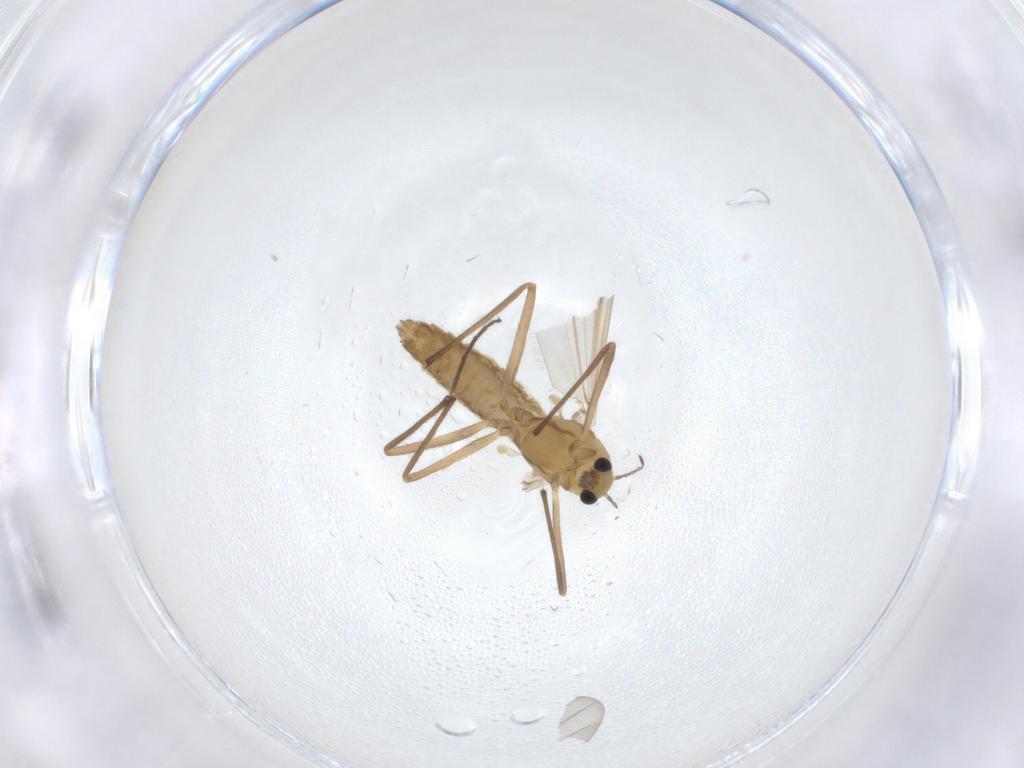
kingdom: Animalia
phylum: Arthropoda
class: Insecta
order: Diptera
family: Chironomidae
